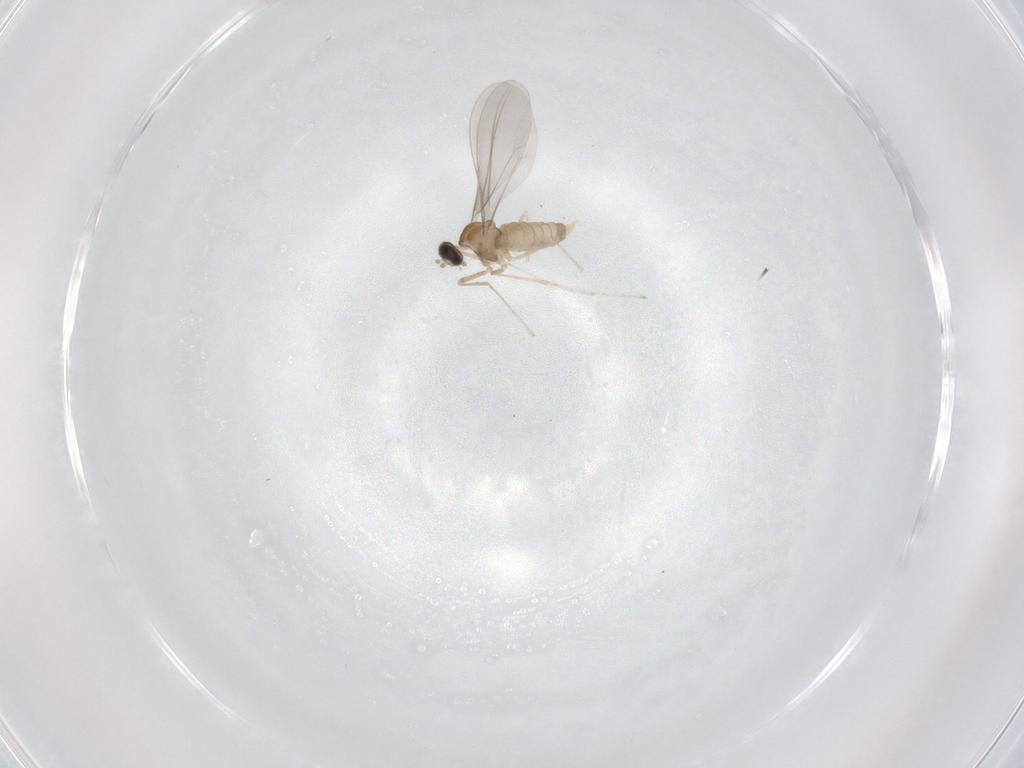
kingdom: Animalia
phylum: Arthropoda
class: Insecta
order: Diptera
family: Cecidomyiidae
